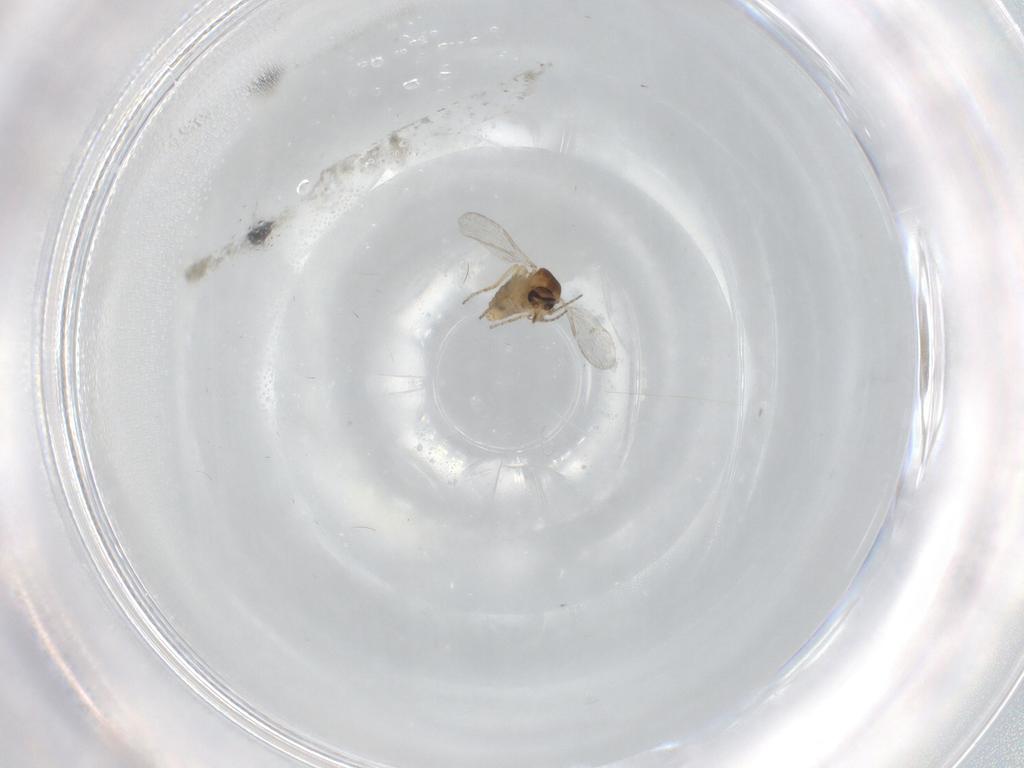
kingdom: Animalia
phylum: Arthropoda
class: Insecta
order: Diptera
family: Ceratopogonidae
